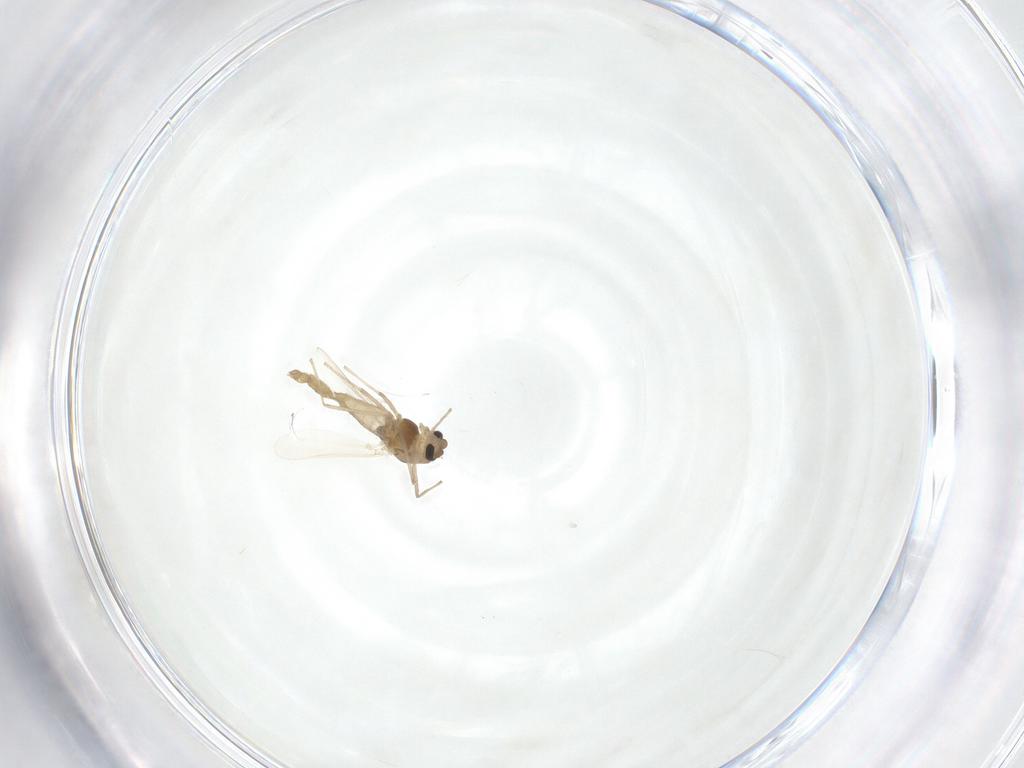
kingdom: Animalia
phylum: Arthropoda
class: Insecta
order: Diptera
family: Chironomidae
